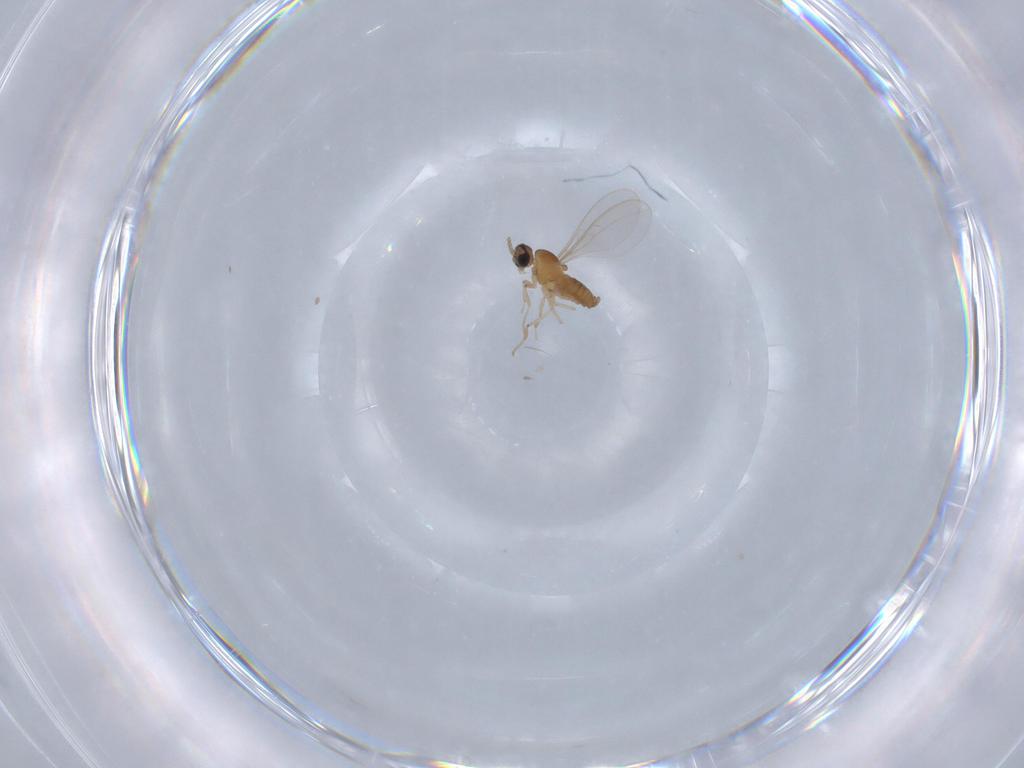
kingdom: Animalia
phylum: Arthropoda
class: Insecta
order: Diptera
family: Cecidomyiidae
